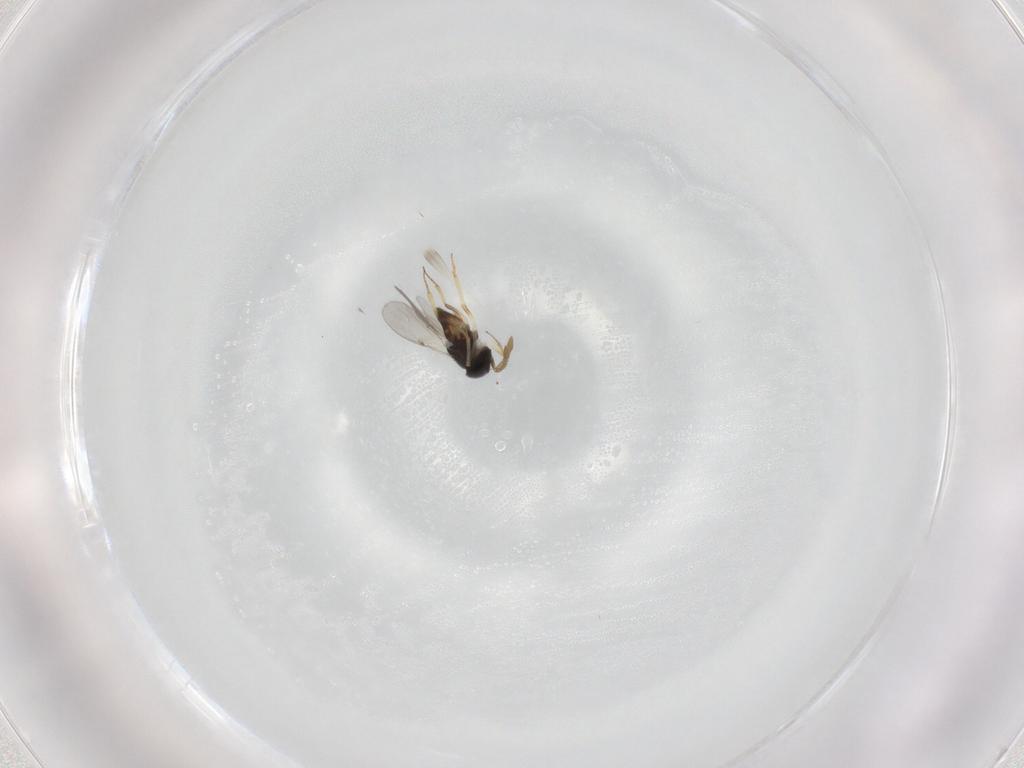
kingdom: Animalia
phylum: Arthropoda
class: Insecta
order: Hymenoptera
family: Encyrtidae
